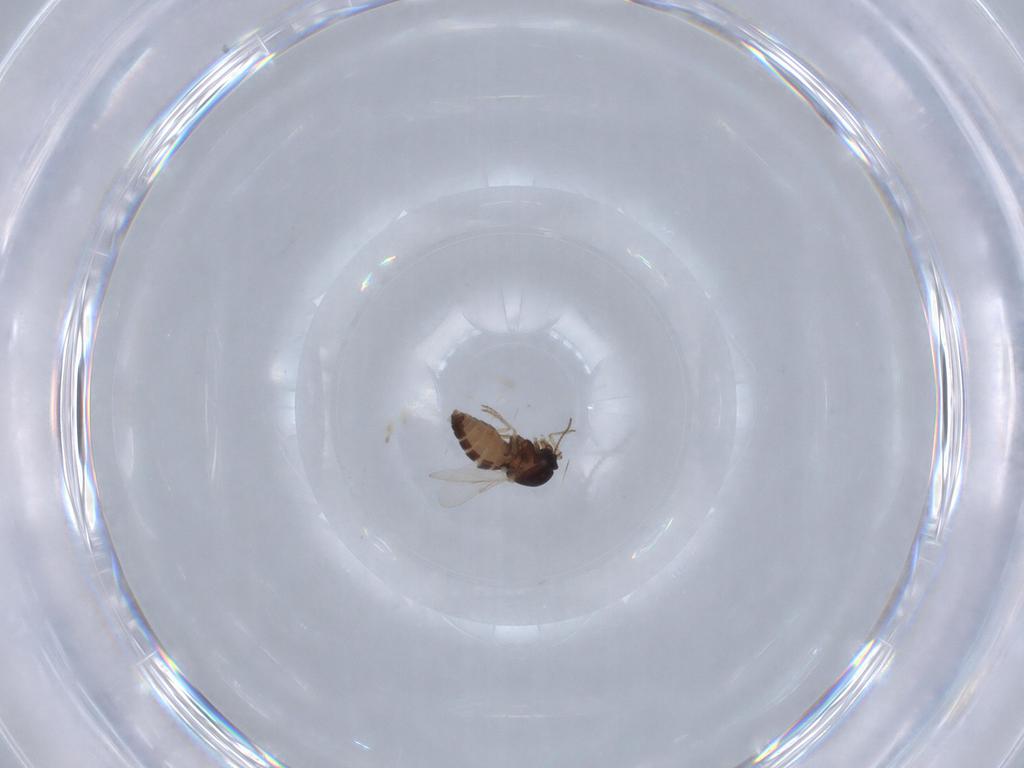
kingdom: Animalia
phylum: Arthropoda
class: Insecta
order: Diptera
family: Ceratopogonidae
